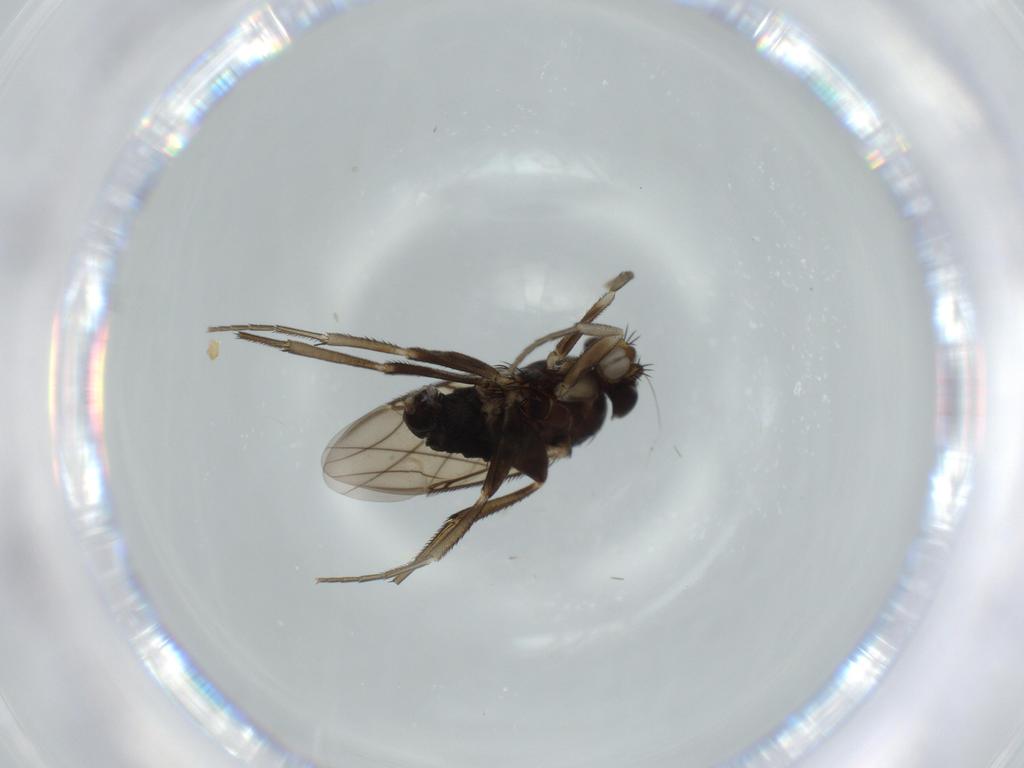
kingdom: Animalia
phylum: Arthropoda
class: Insecta
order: Diptera
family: Phoridae
